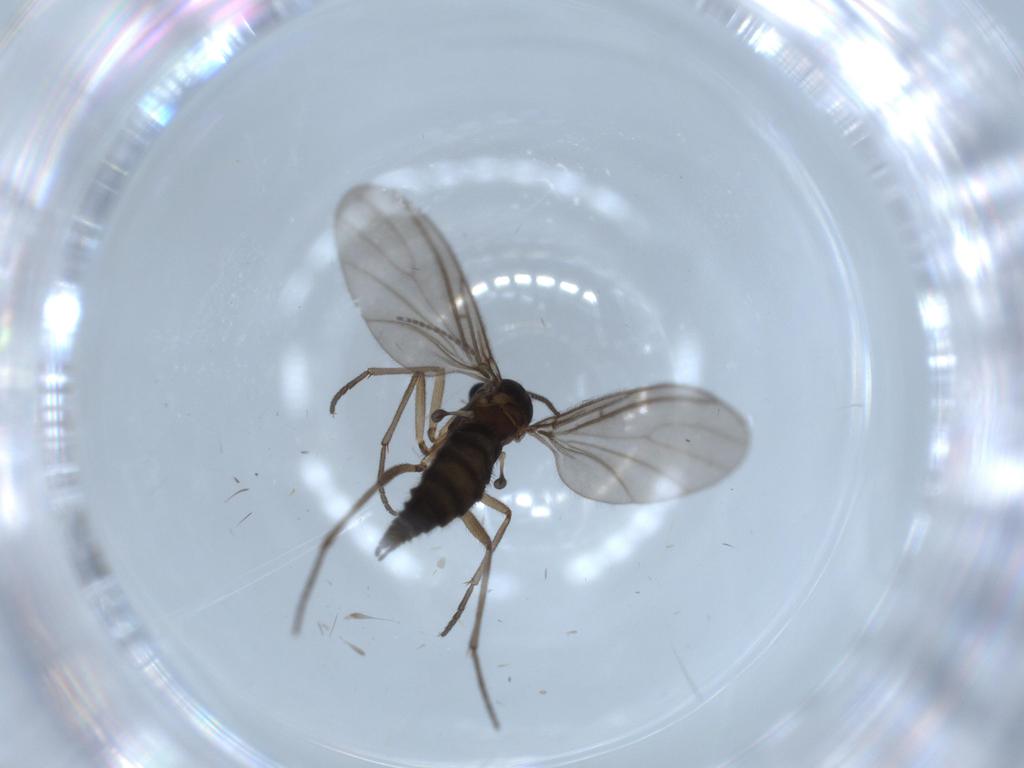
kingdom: Animalia
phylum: Arthropoda
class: Insecta
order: Diptera
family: Sciaridae
